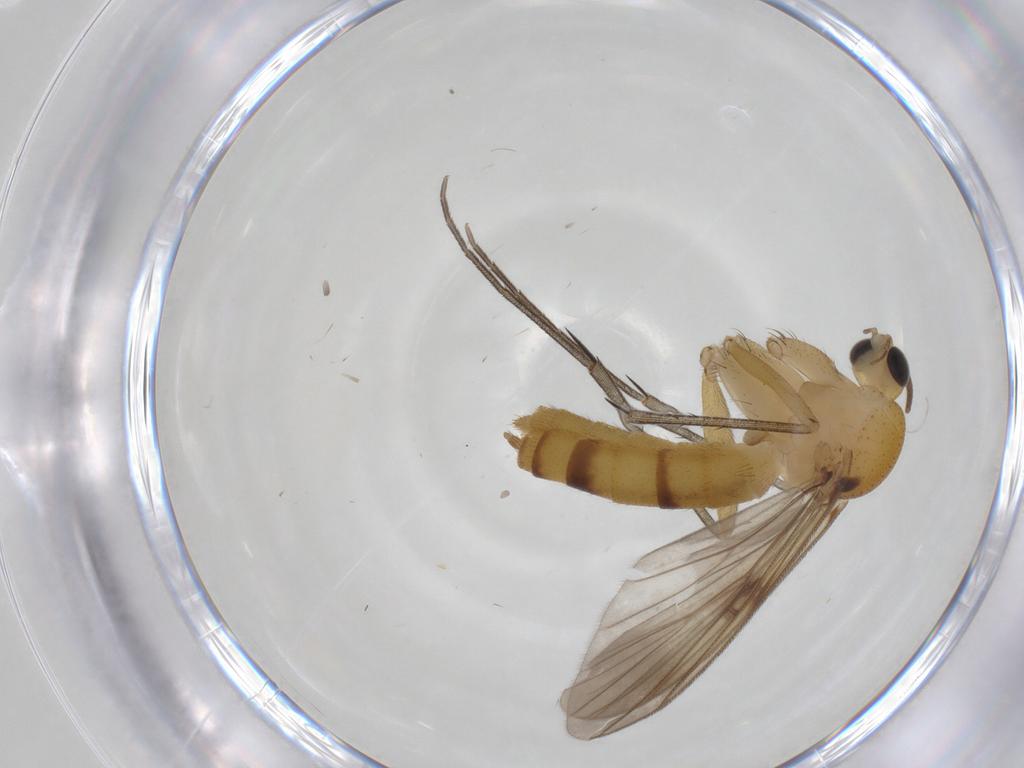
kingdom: Animalia
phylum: Arthropoda
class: Insecta
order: Diptera
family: Mycetophilidae
